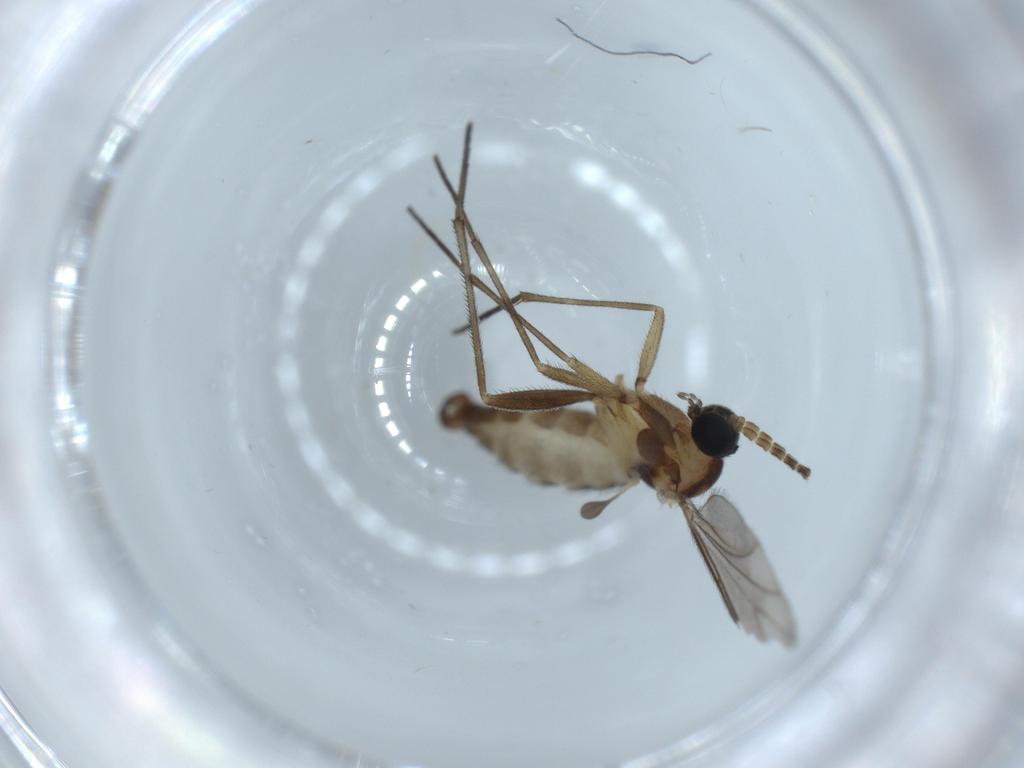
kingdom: Animalia
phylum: Arthropoda
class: Insecta
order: Diptera
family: Sciaridae
